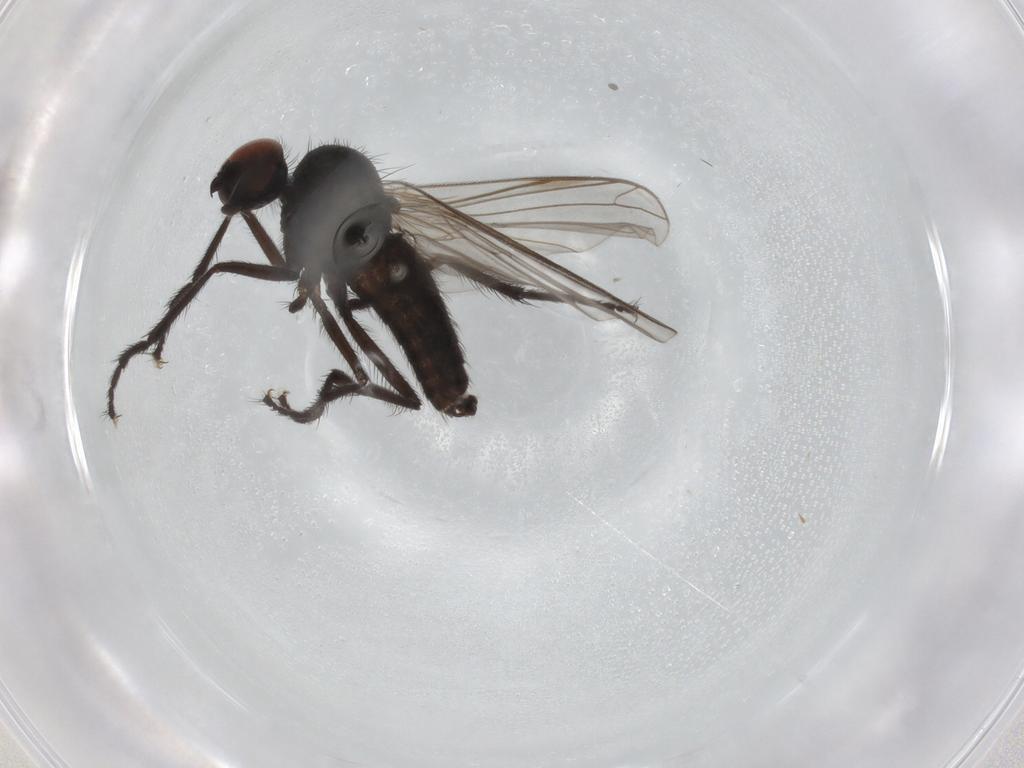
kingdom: Animalia
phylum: Arthropoda
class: Insecta
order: Diptera
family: Empididae
